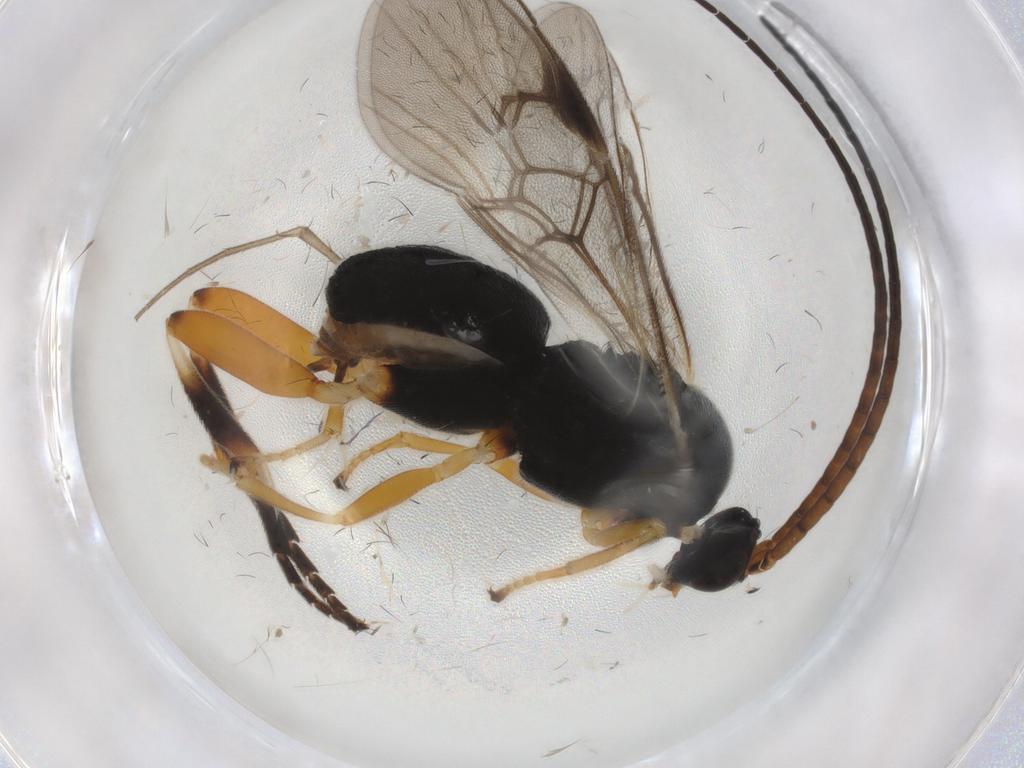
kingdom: Animalia
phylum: Arthropoda
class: Insecta
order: Hymenoptera
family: Braconidae
